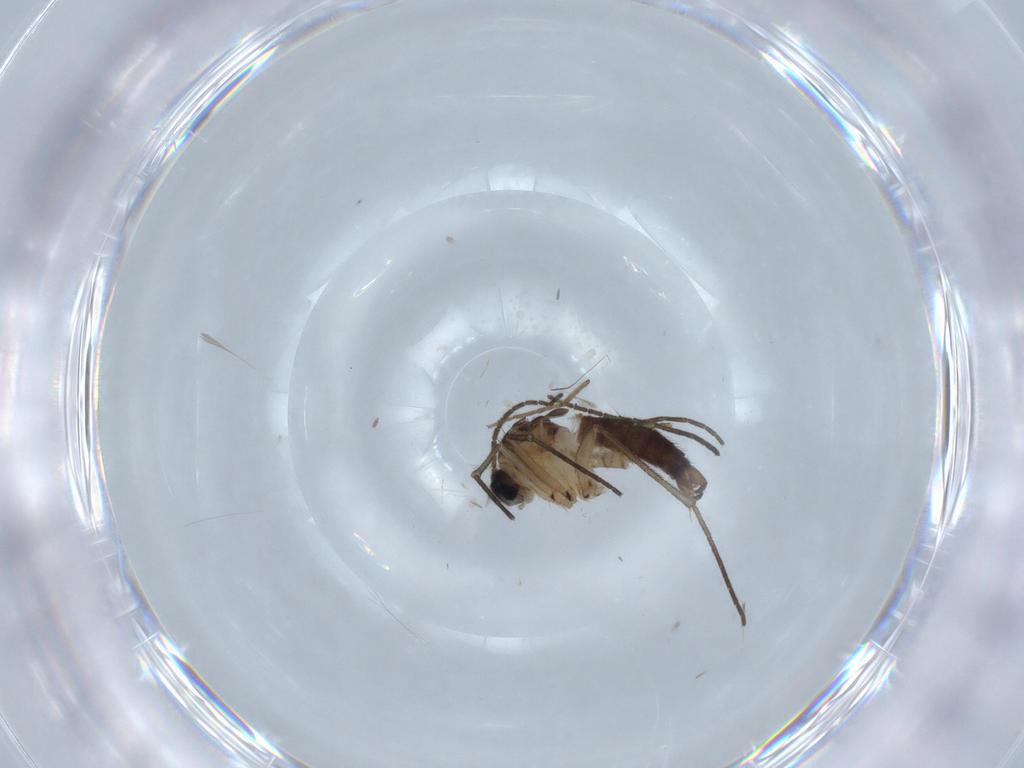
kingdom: Animalia
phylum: Arthropoda
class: Insecta
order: Diptera
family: Sciaridae
